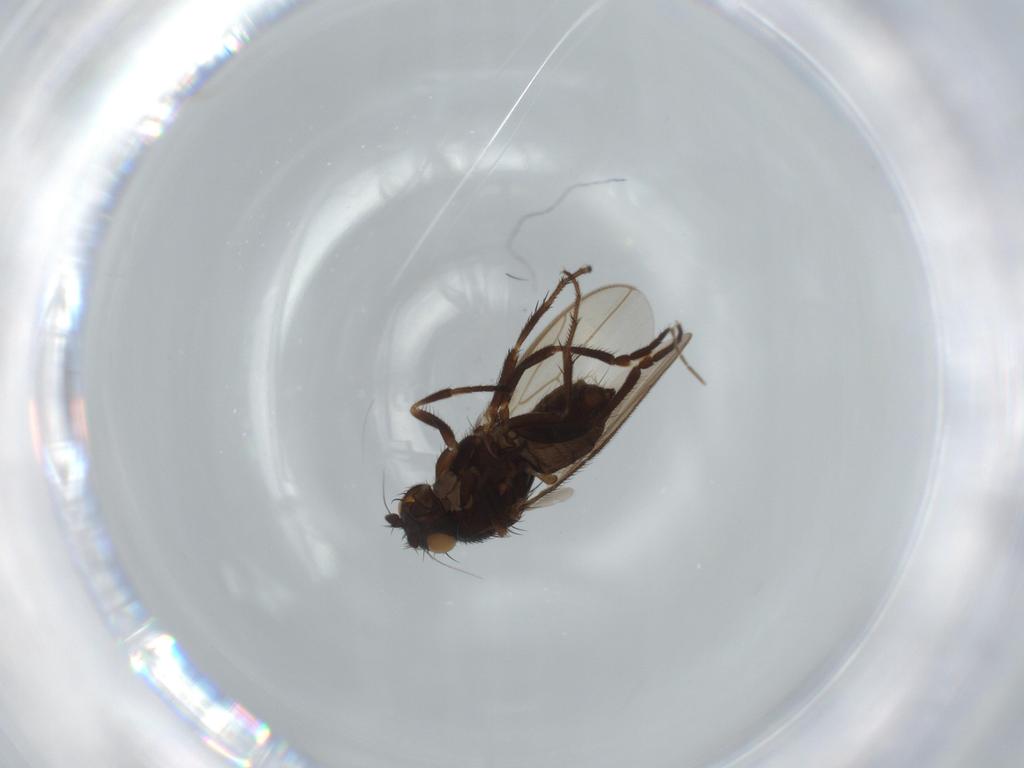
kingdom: Animalia
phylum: Arthropoda
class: Insecta
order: Diptera
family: Sphaeroceridae
